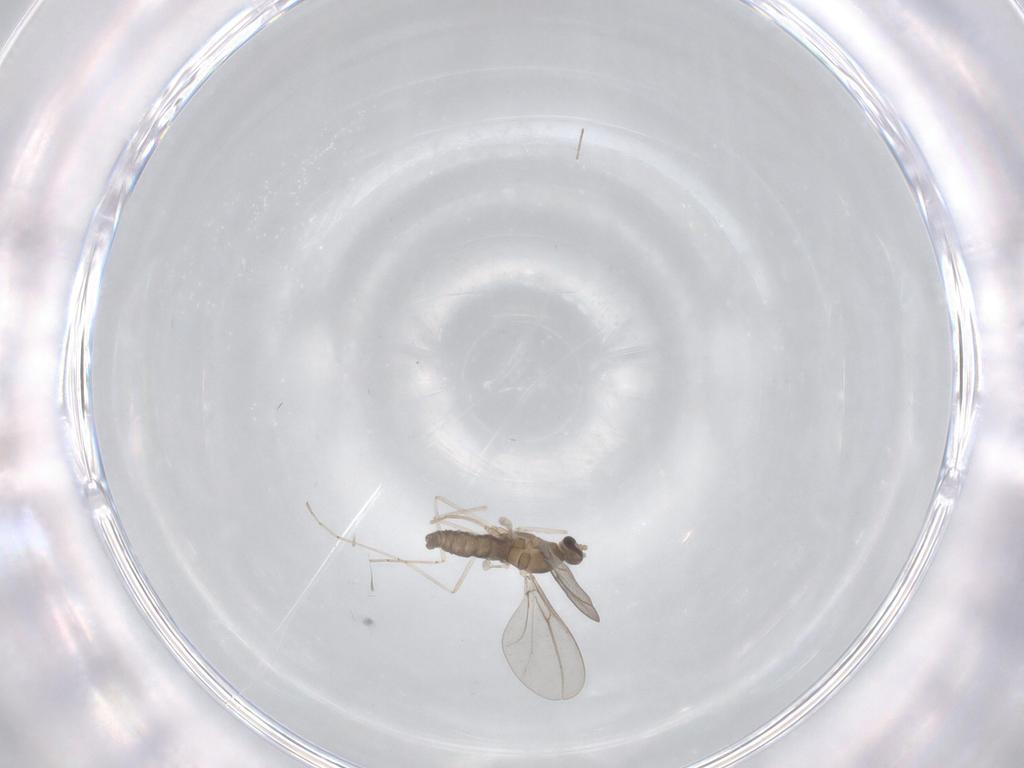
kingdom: Animalia
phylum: Arthropoda
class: Insecta
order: Diptera
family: Cecidomyiidae
